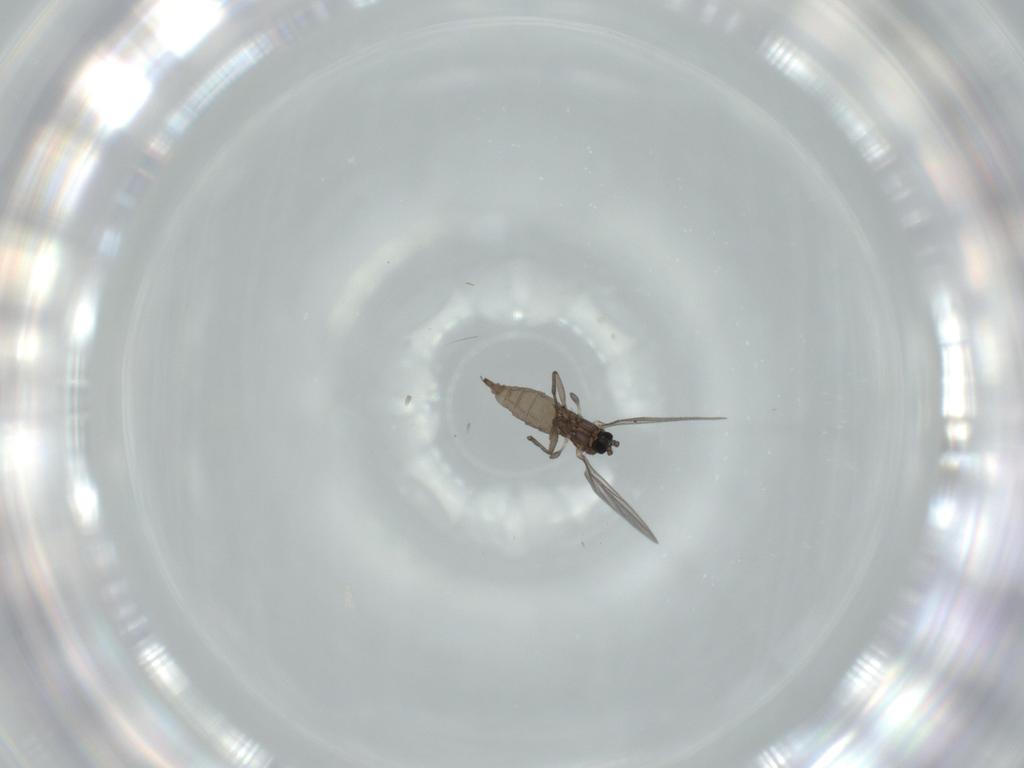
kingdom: Animalia
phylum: Arthropoda
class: Insecta
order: Diptera
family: Sciaridae
